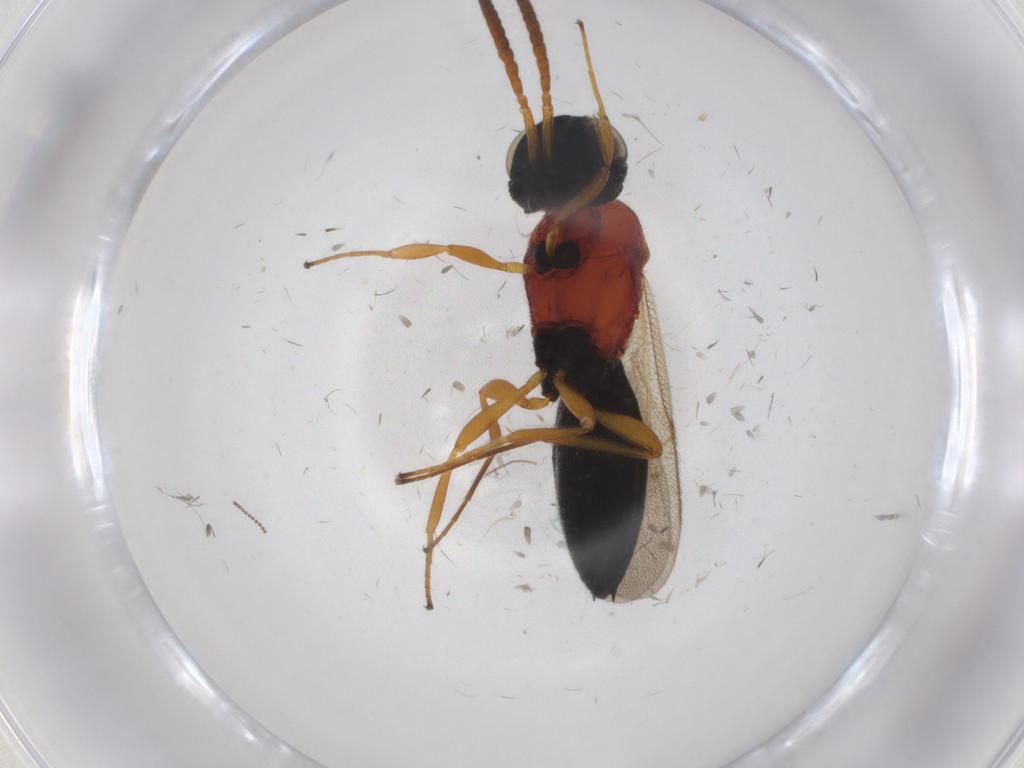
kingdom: Animalia
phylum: Arthropoda
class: Insecta
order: Hymenoptera
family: Scelionidae
